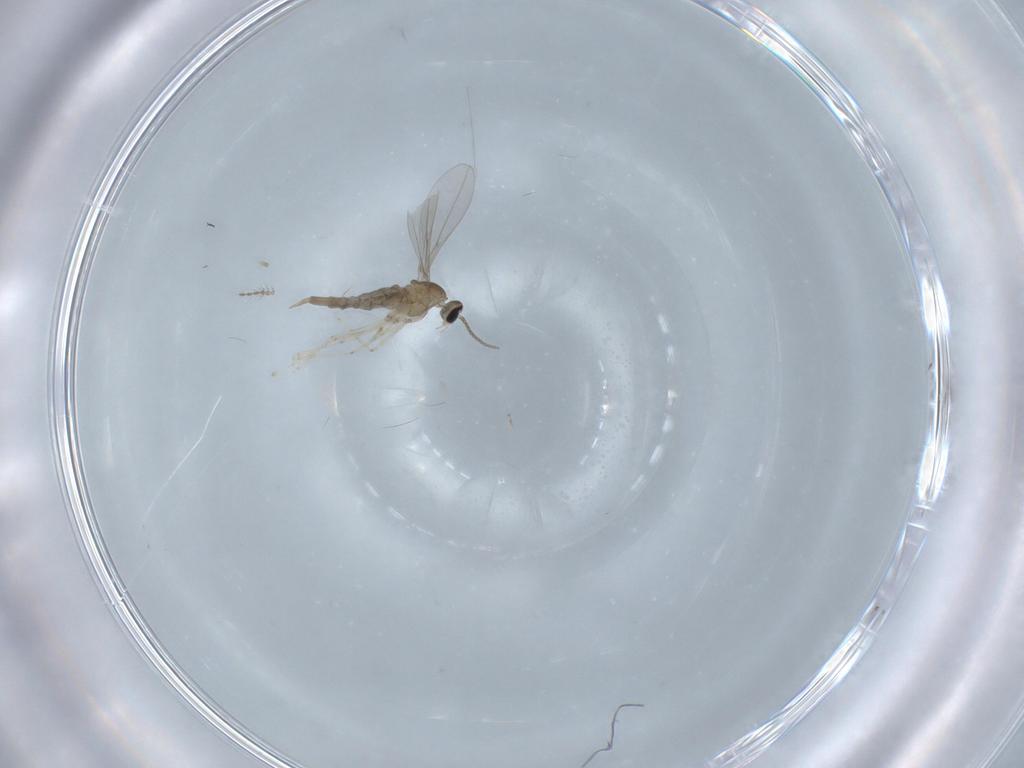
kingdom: Animalia
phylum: Arthropoda
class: Insecta
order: Diptera
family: Cecidomyiidae
